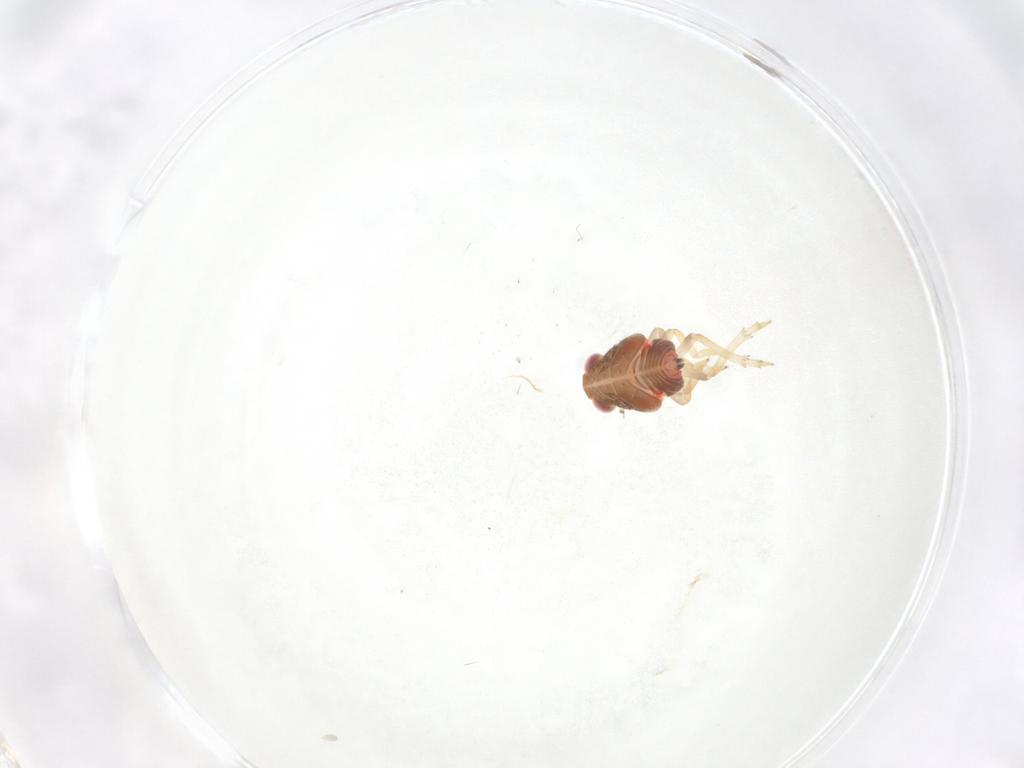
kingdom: Animalia
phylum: Arthropoda
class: Insecta
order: Hemiptera
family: Issidae
